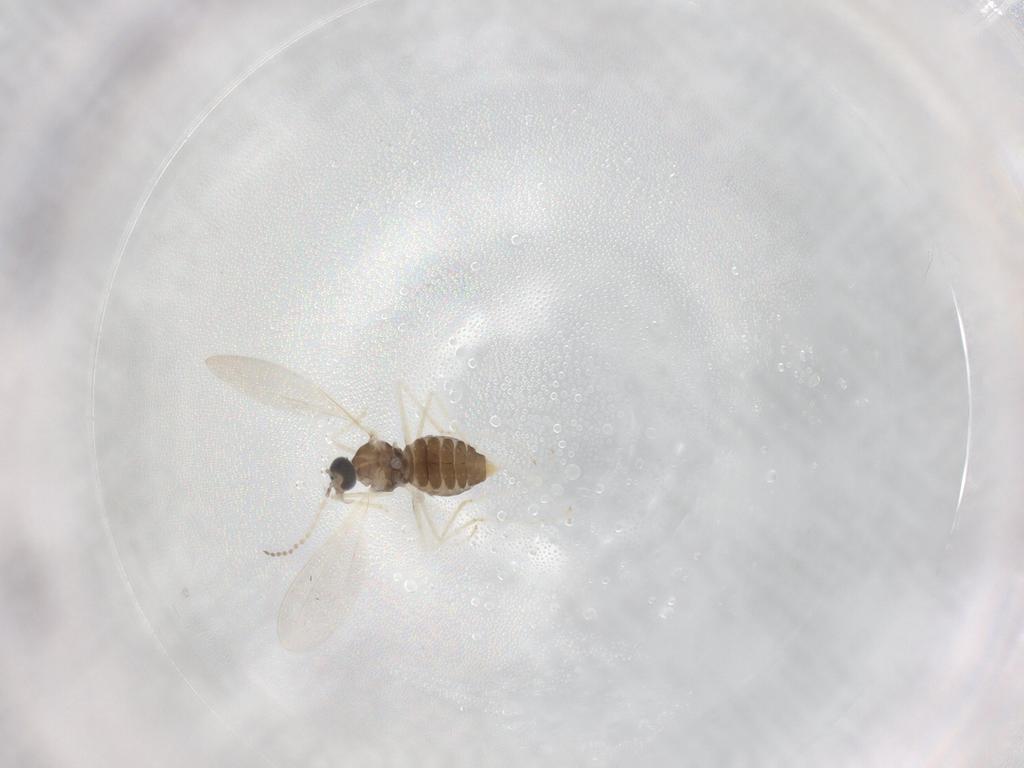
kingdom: Animalia
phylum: Arthropoda
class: Insecta
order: Diptera
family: Cecidomyiidae
